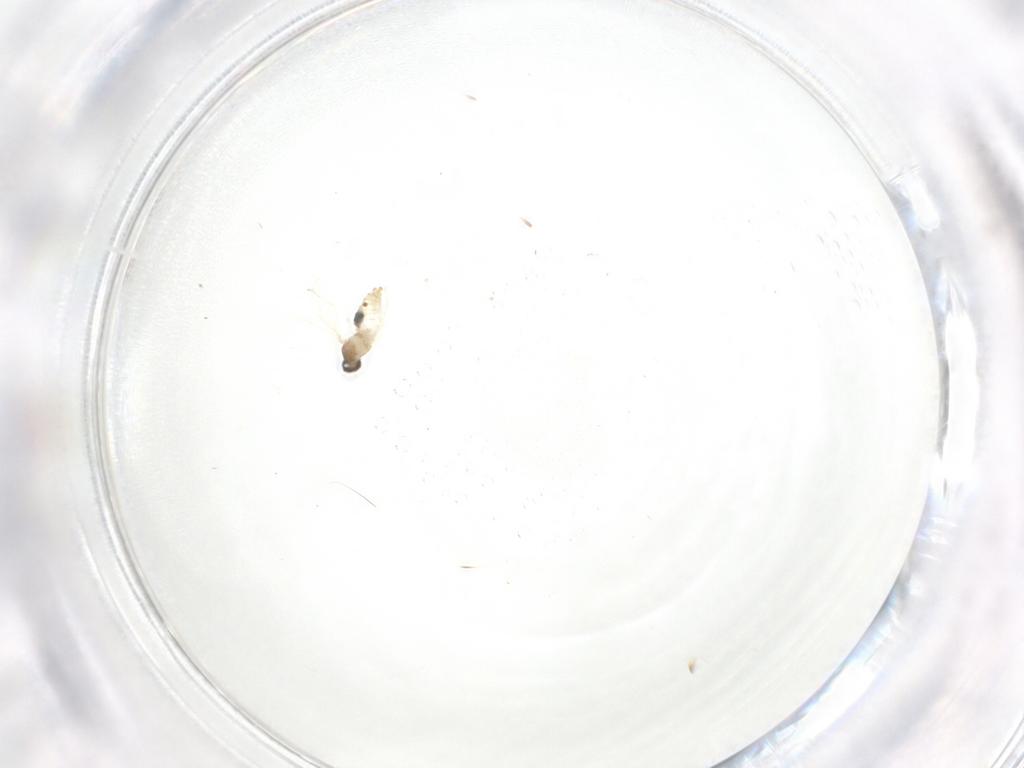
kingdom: Animalia
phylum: Arthropoda
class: Insecta
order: Diptera
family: Cecidomyiidae
